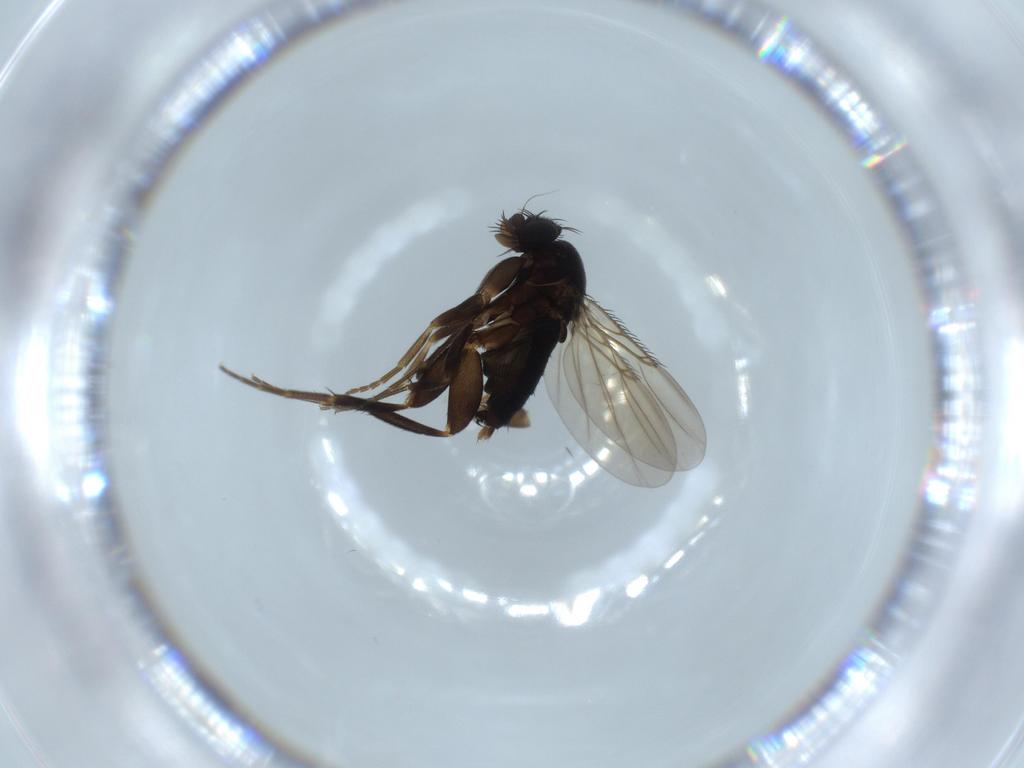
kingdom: Animalia
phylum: Arthropoda
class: Insecta
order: Diptera
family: Phoridae
